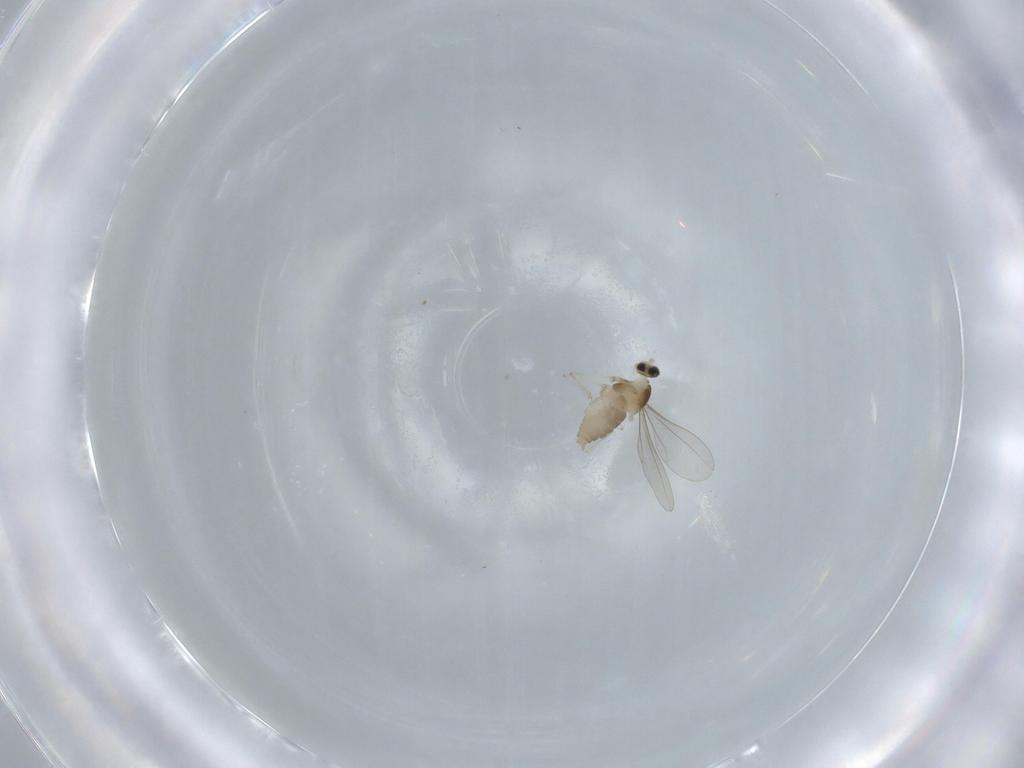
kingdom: Animalia
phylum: Arthropoda
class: Insecta
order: Diptera
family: Cecidomyiidae
